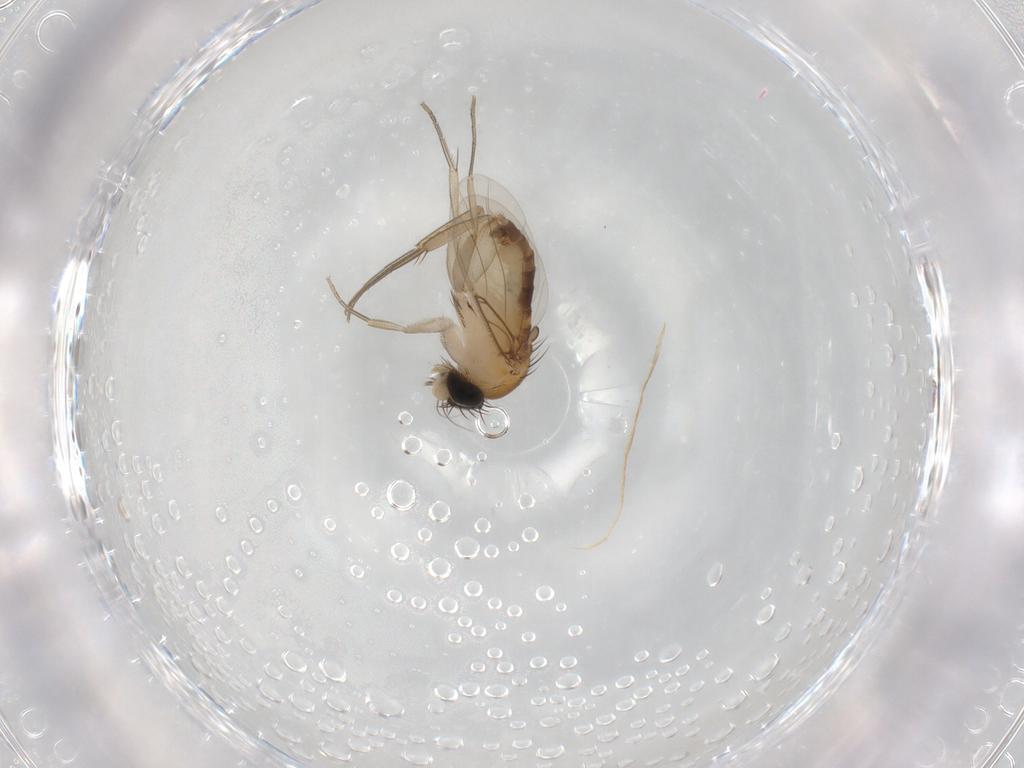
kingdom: Animalia
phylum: Arthropoda
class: Insecta
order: Diptera
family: Phoridae
